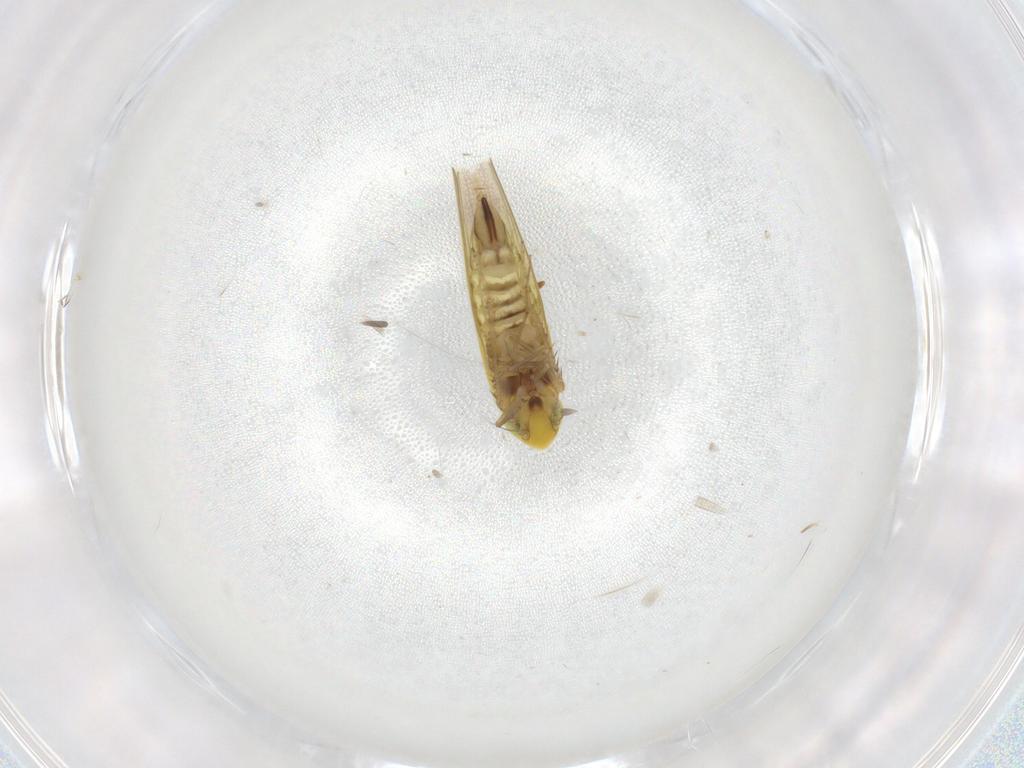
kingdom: Animalia
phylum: Arthropoda
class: Insecta
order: Hemiptera
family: Cicadellidae
